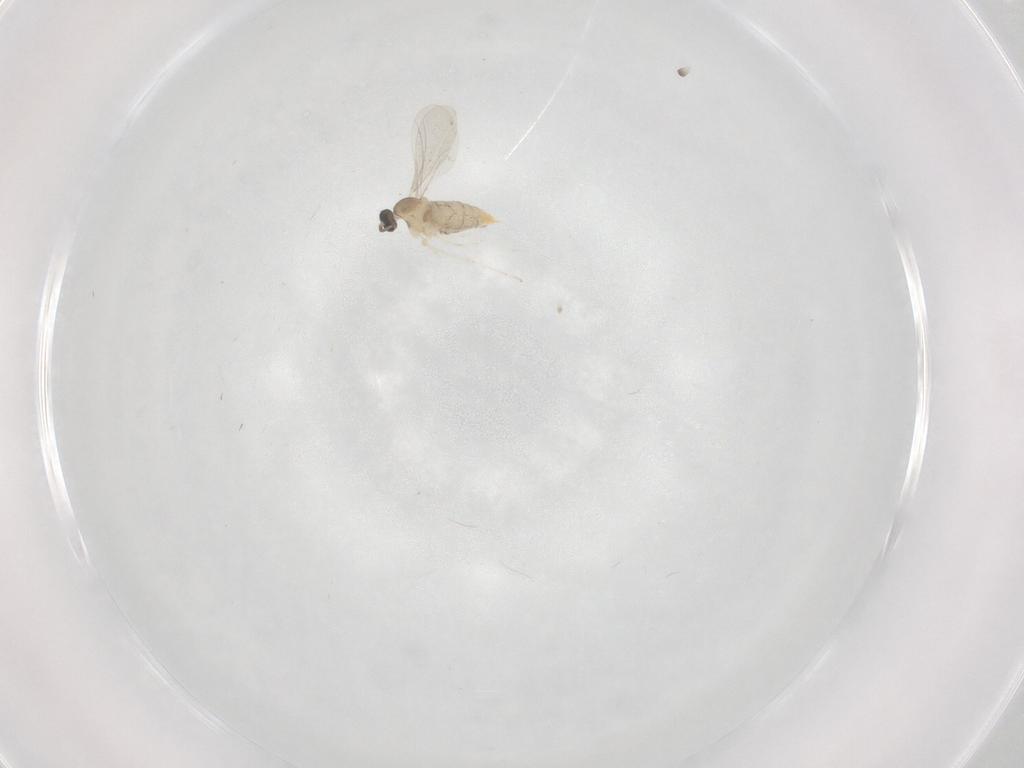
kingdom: Animalia
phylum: Arthropoda
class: Insecta
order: Diptera
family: Cecidomyiidae
